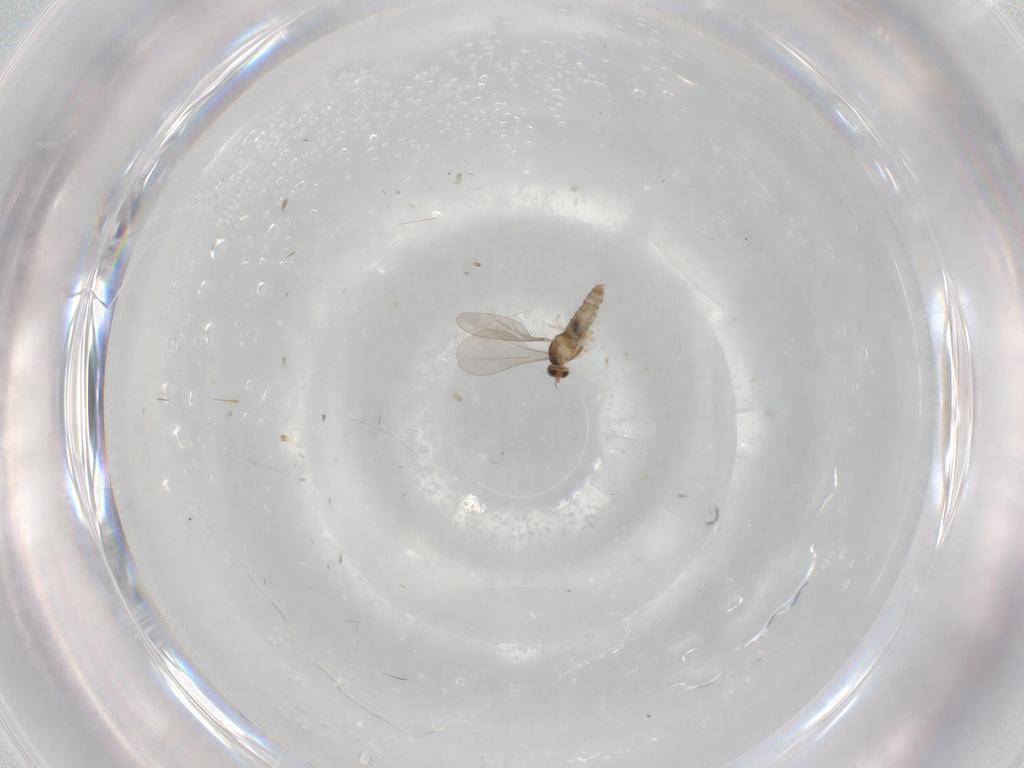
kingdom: Animalia
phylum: Arthropoda
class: Insecta
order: Diptera
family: Cecidomyiidae
